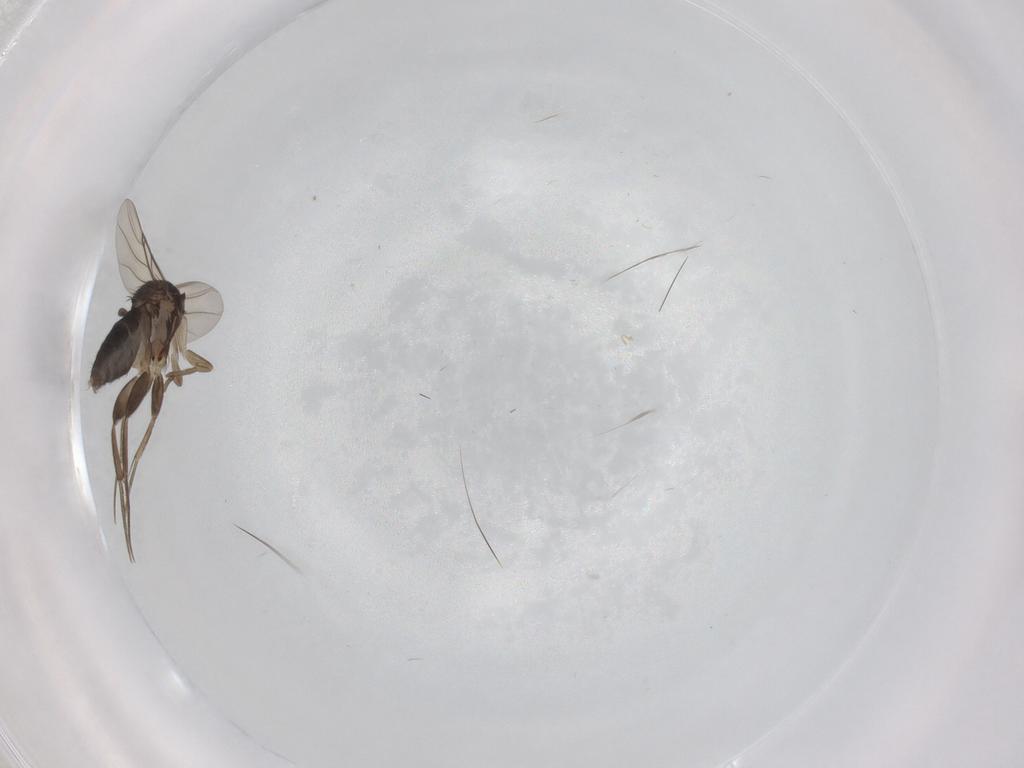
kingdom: Animalia
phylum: Arthropoda
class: Insecta
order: Diptera
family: Phoridae
